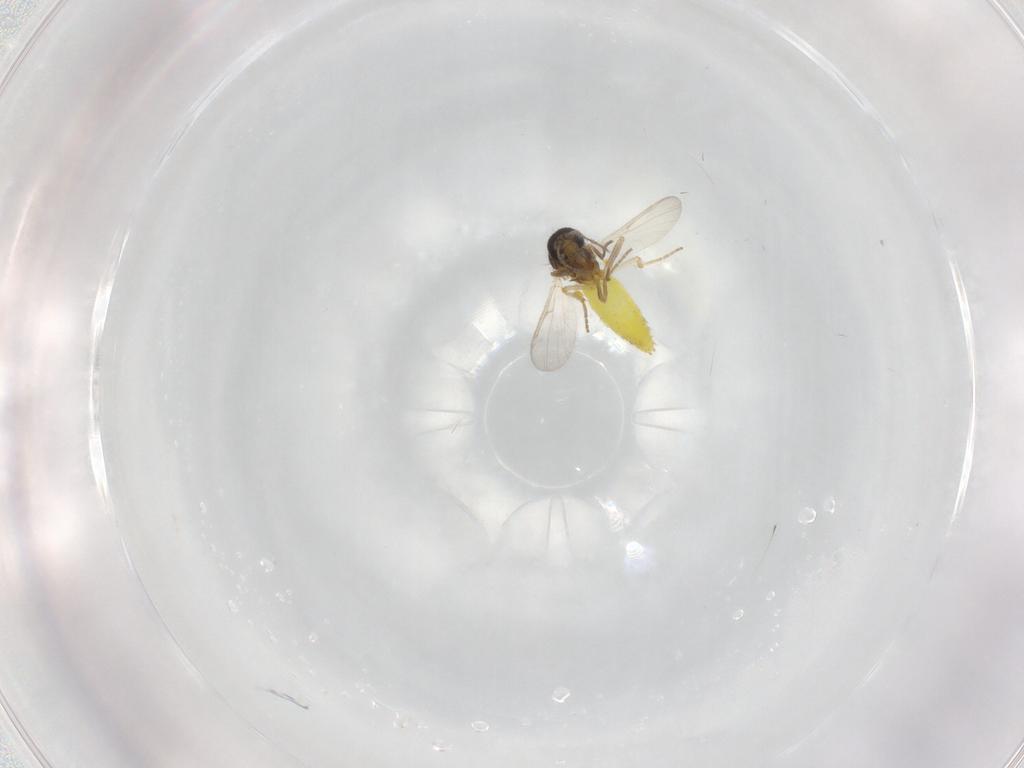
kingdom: Animalia
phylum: Arthropoda
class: Insecta
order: Diptera
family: Ceratopogonidae
